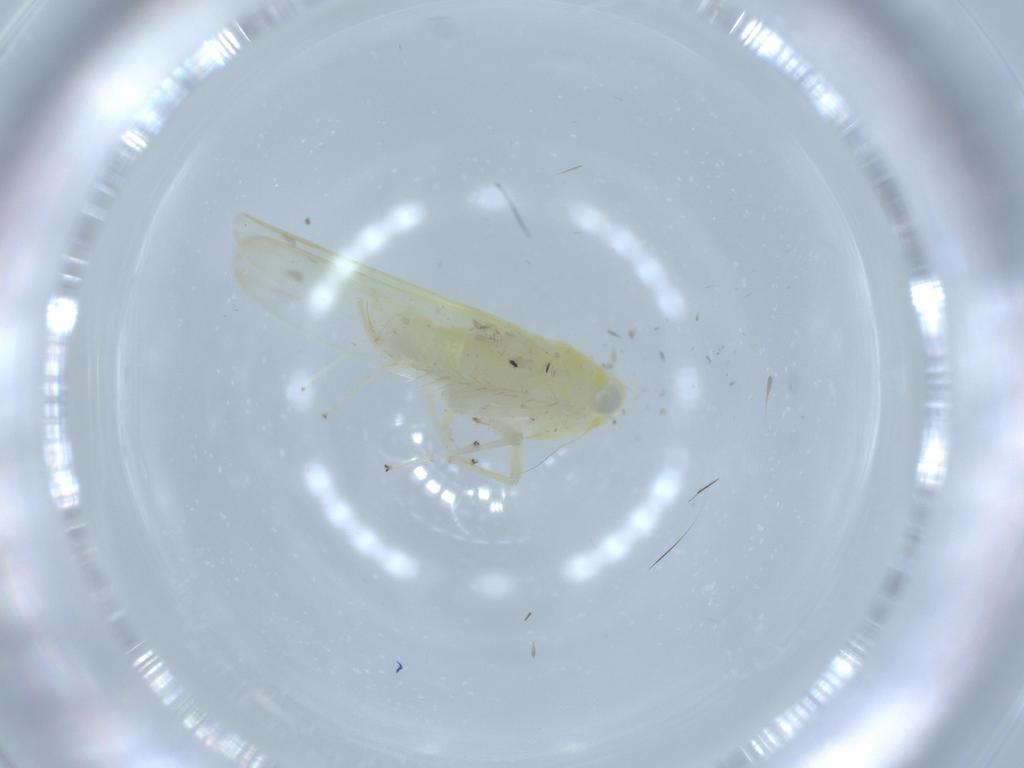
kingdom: Animalia
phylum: Arthropoda
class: Insecta
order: Hemiptera
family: Cicadellidae
